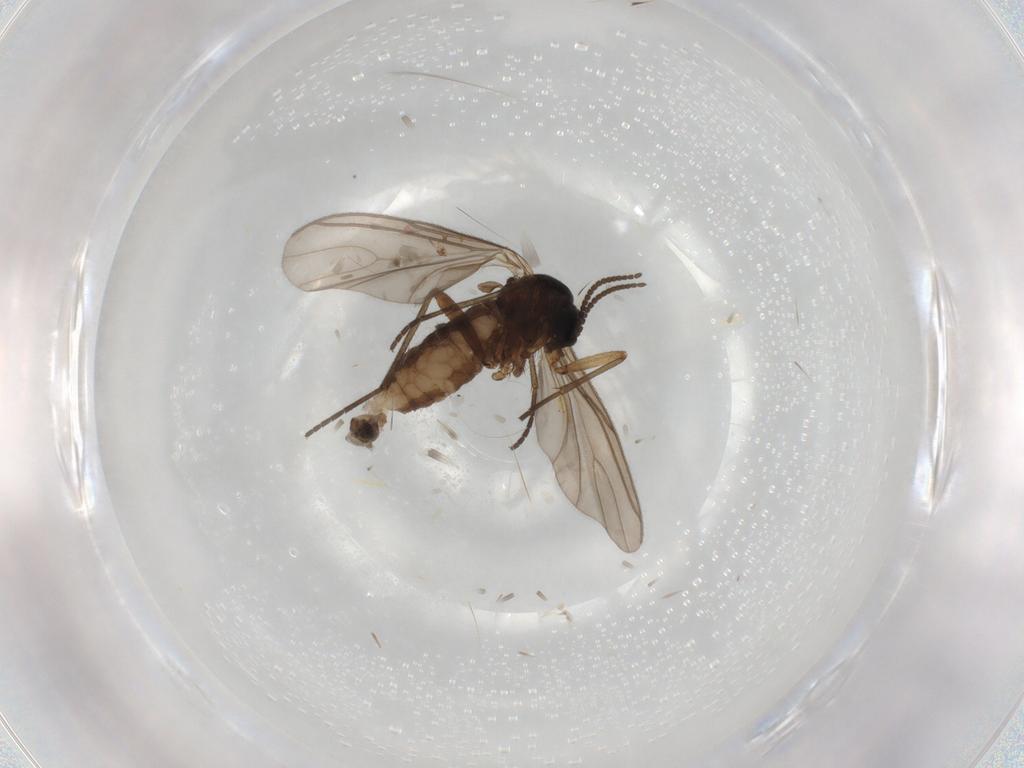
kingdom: Animalia
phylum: Arthropoda
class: Insecta
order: Diptera
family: Sciaridae
